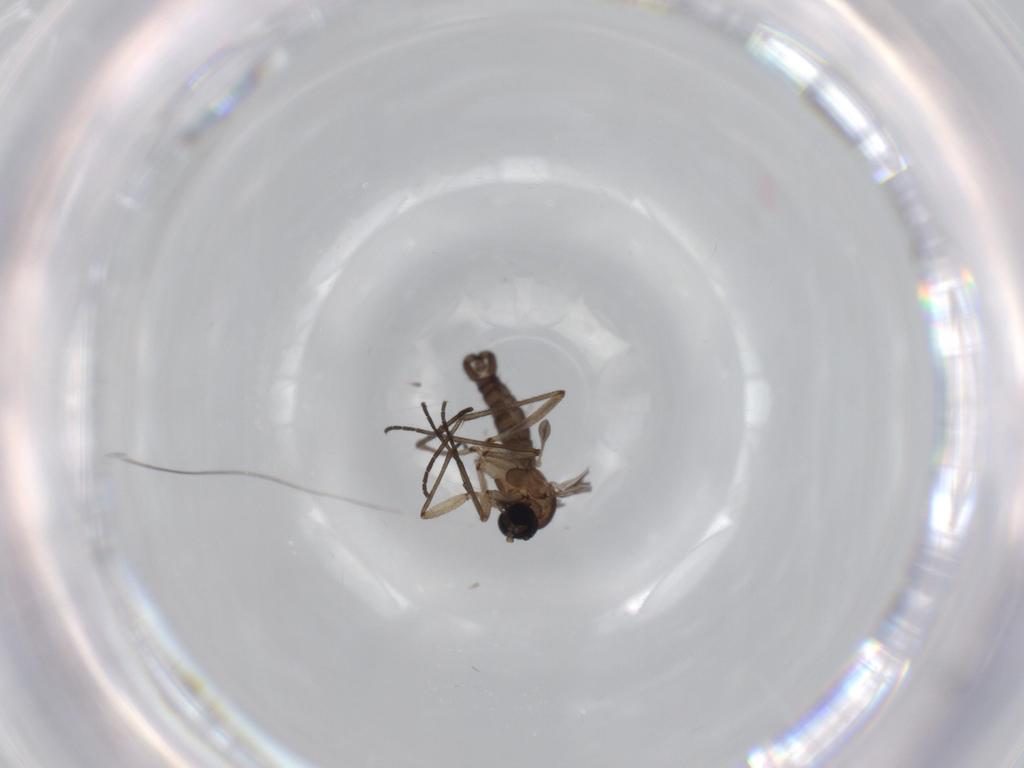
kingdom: Animalia
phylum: Arthropoda
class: Insecta
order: Diptera
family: Sciaridae
